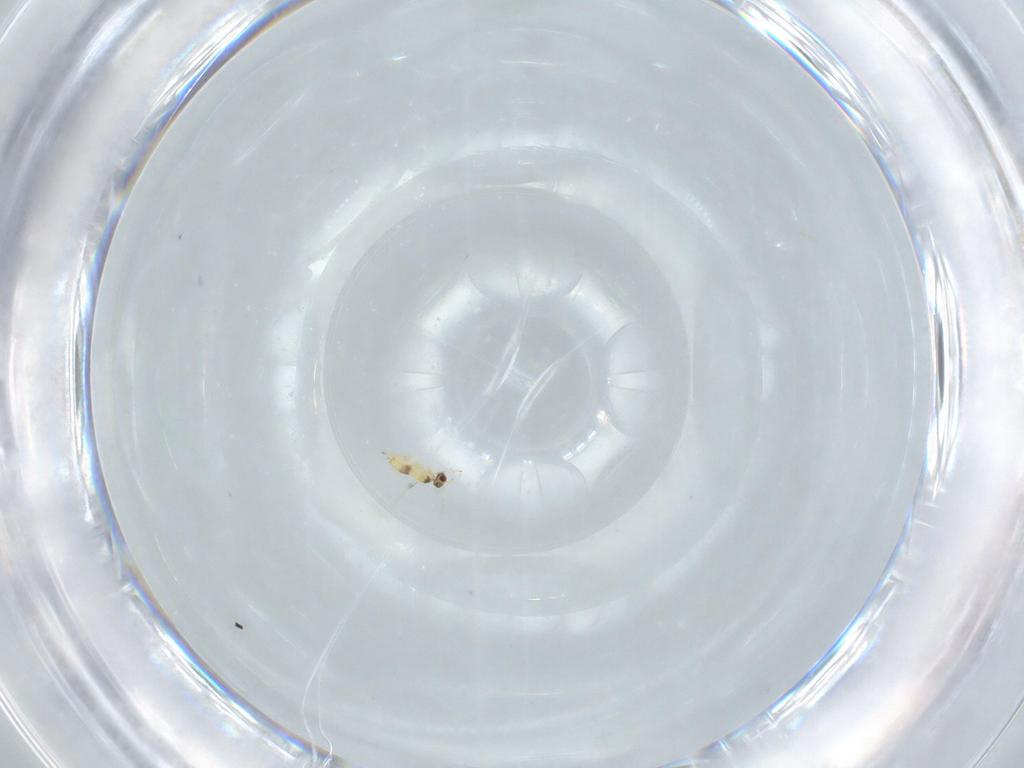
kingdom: Animalia
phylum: Arthropoda
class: Insecta
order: Hymenoptera
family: Mymaridae
